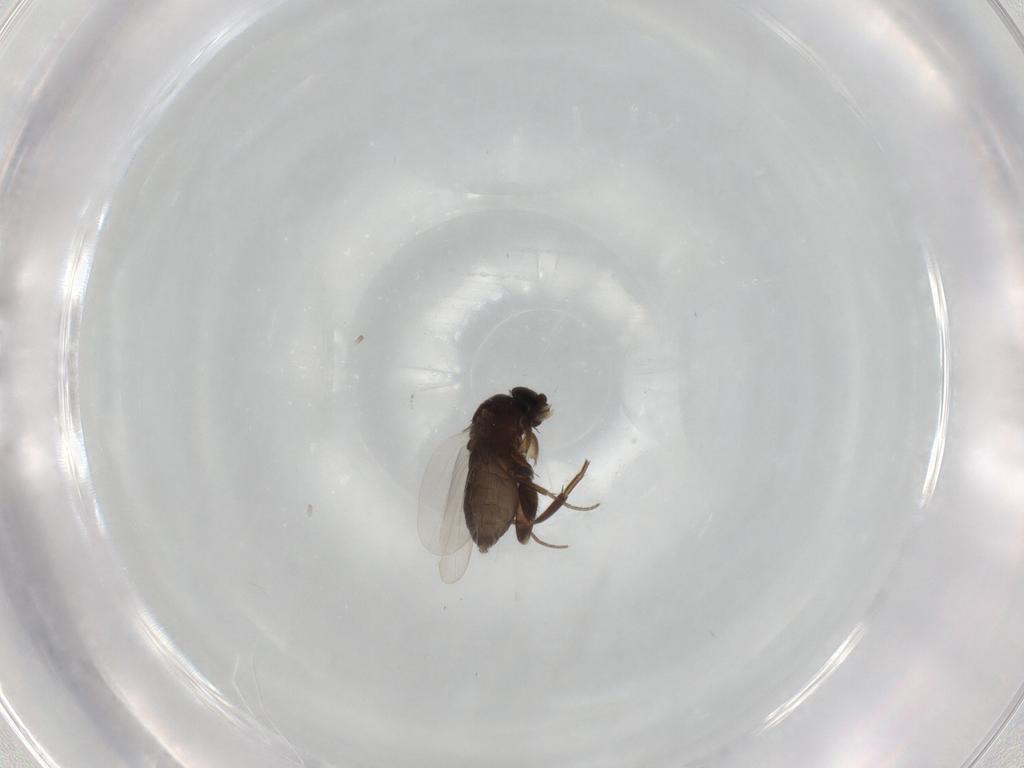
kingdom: Animalia
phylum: Arthropoda
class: Insecta
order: Diptera
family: Phoridae
